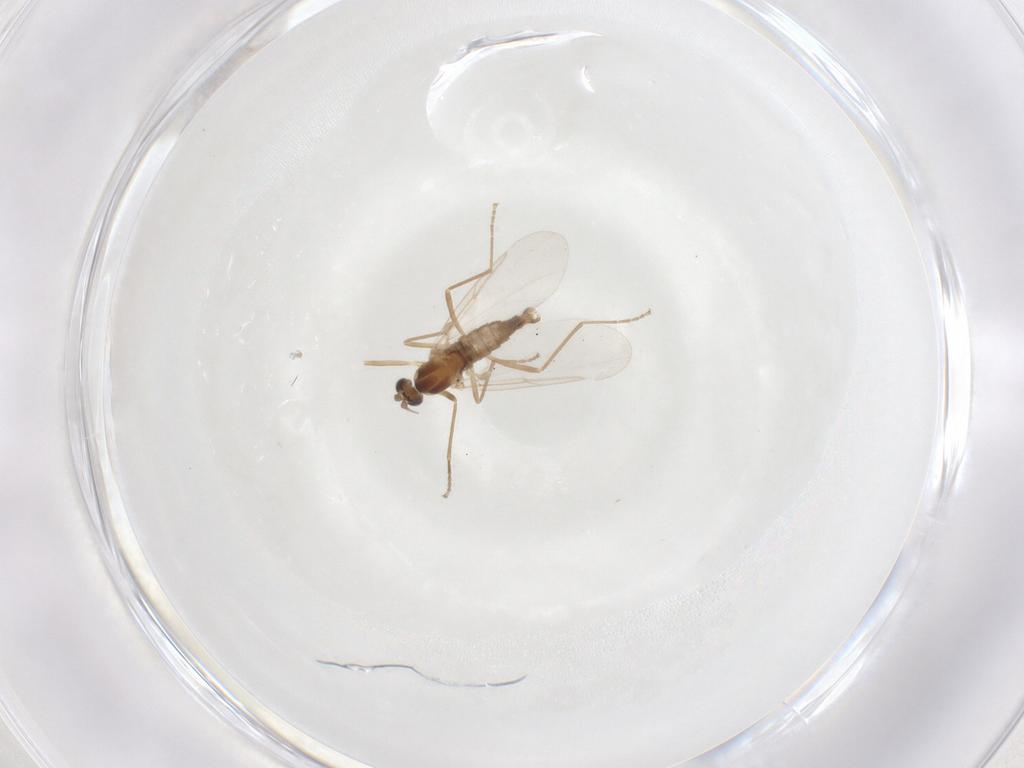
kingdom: Animalia
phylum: Arthropoda
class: Insecta
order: Diptera
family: Cecidomyiidae
